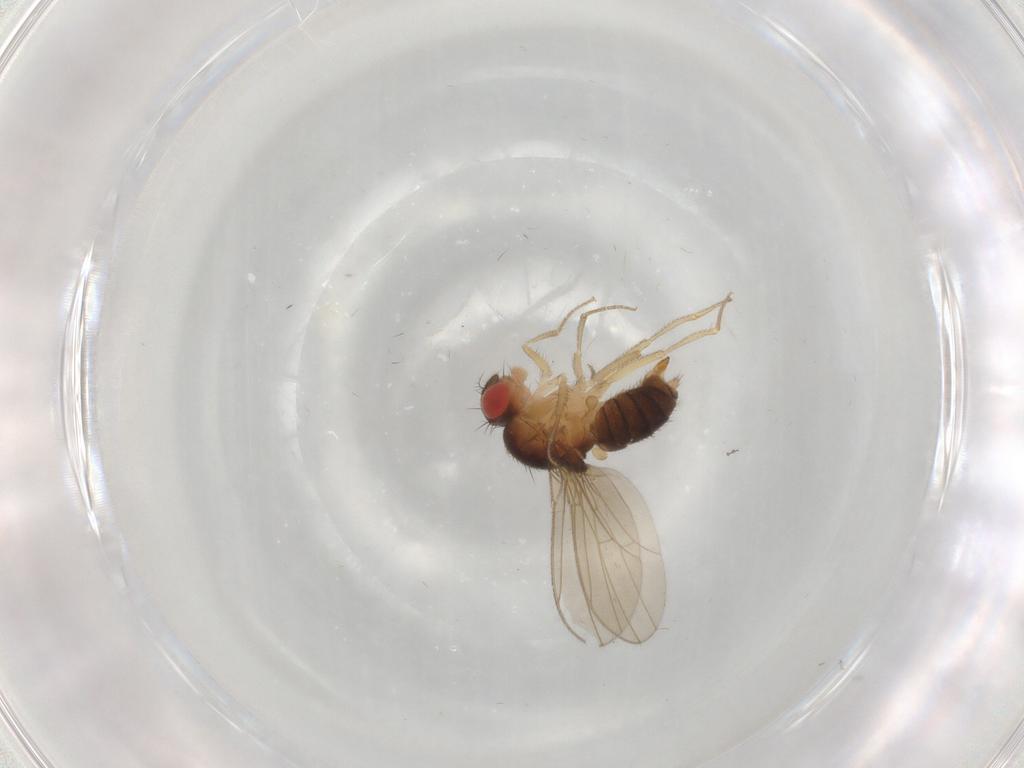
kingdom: Animalia
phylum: Arthropoda
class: Insecta
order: Diptera
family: Drosophilidae
